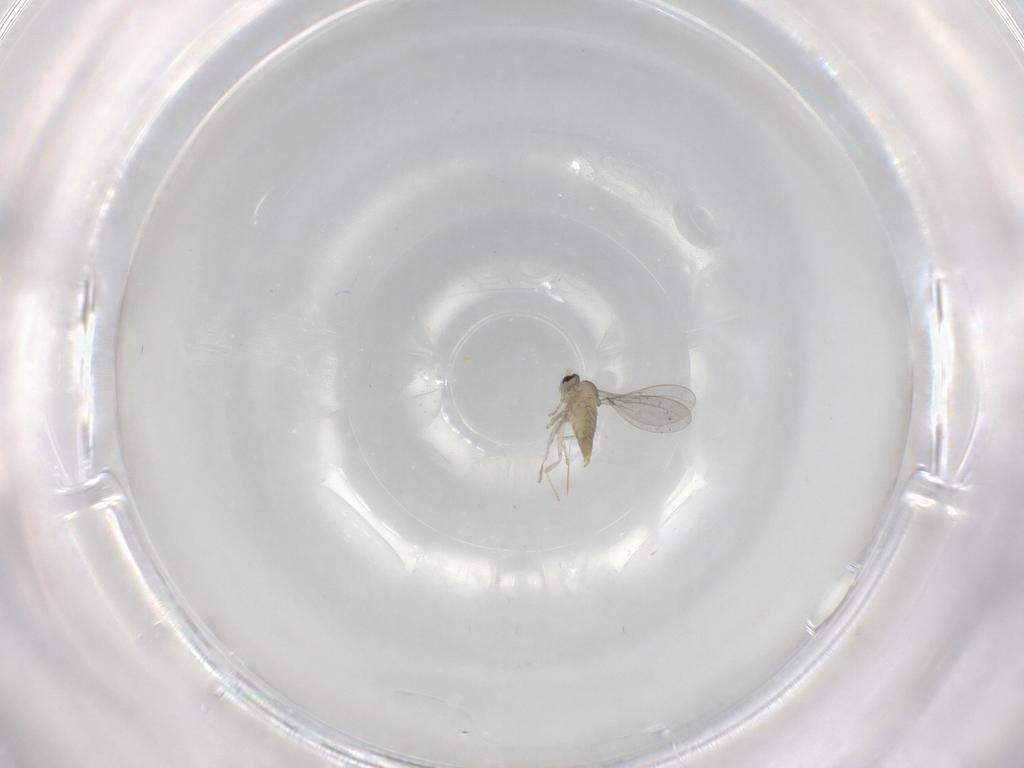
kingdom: Animalia
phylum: Arthropoda
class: Insecta
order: Diptera
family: Cecidomyiidae
